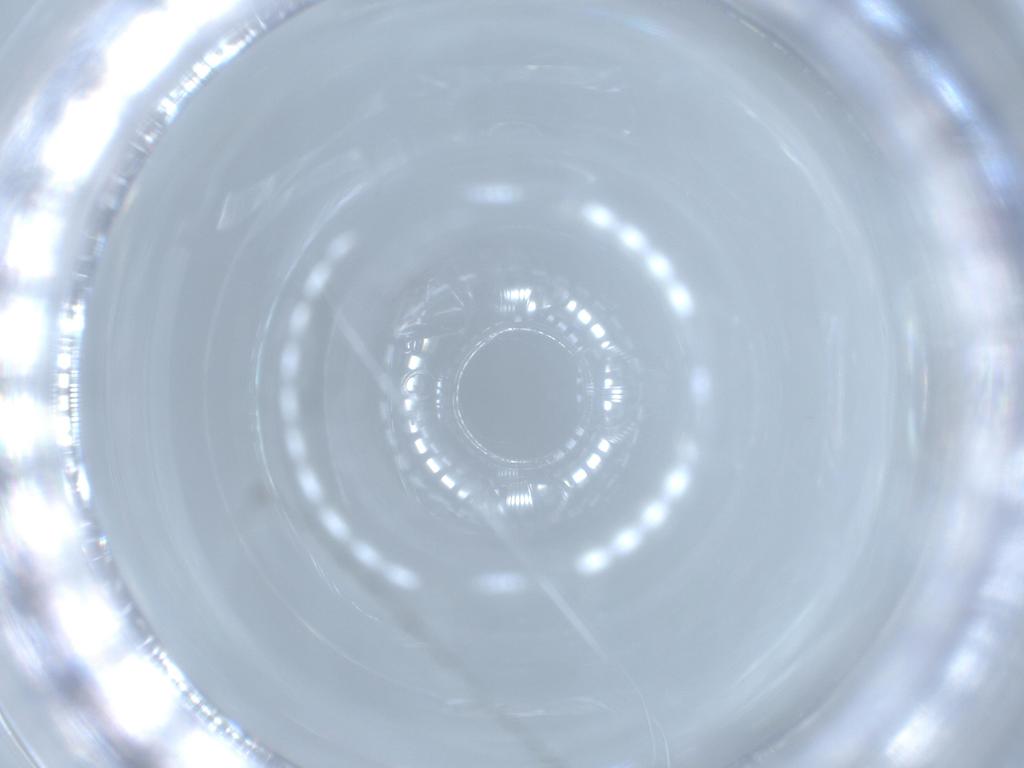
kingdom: Animalia
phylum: Arthropoda
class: Insecta
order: Hymenoptera
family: Trichogrammatidae
